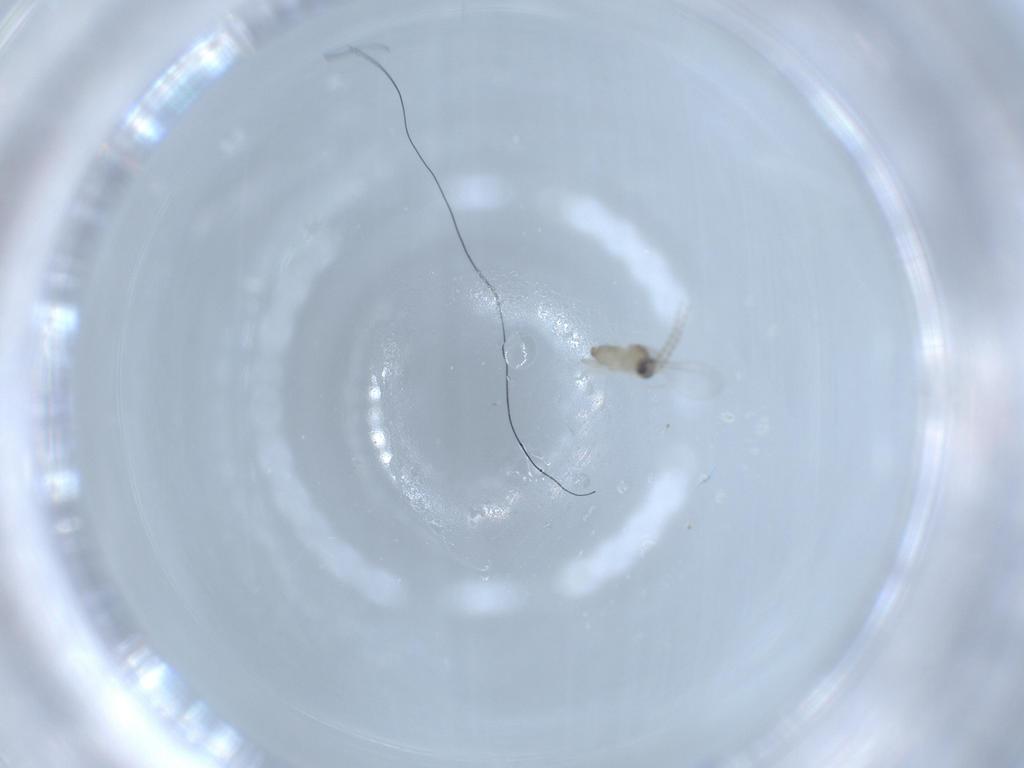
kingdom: Animalia
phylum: Arthropoda
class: Insecta
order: Diptera
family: Cecidomyiidae
